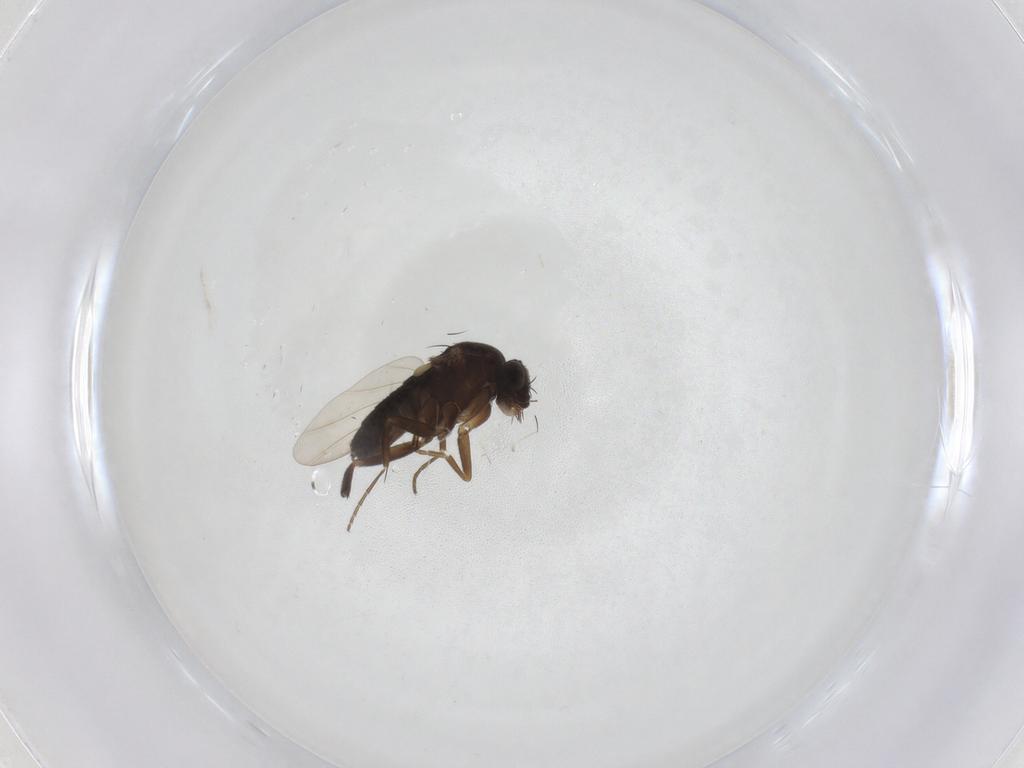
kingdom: Animalia
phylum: Arthropoda
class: Insecta
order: Diptera
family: Phoridae
